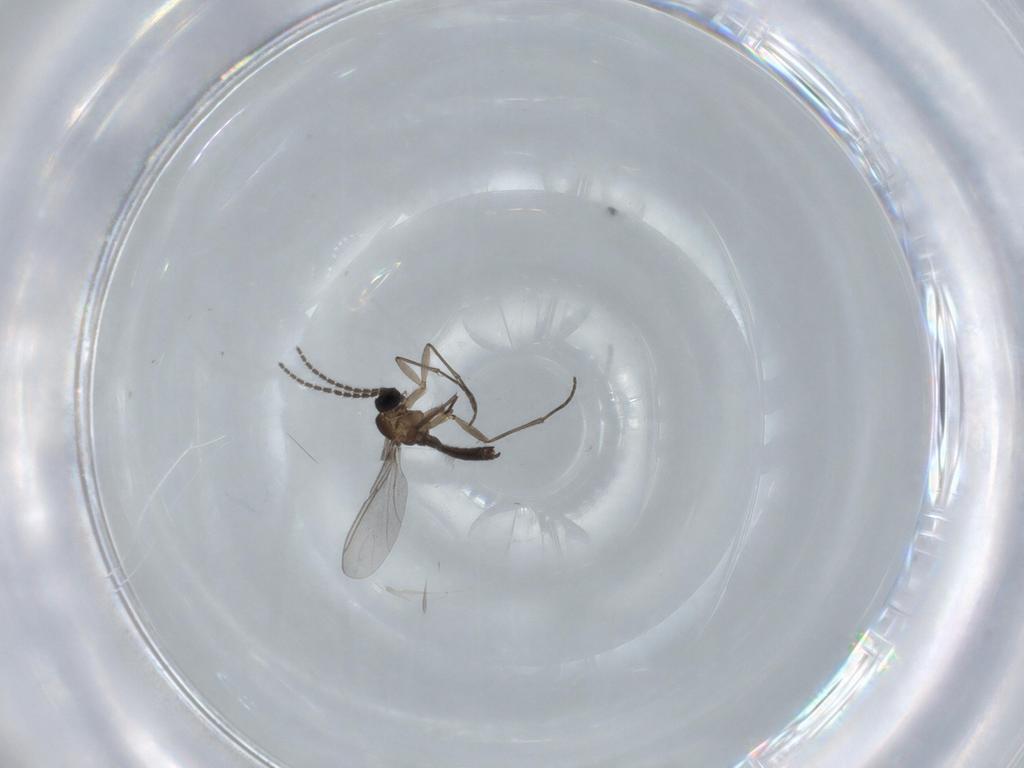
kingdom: Animalia
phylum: Arthropoda
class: Insecta
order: Diptera
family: Sciaridae
